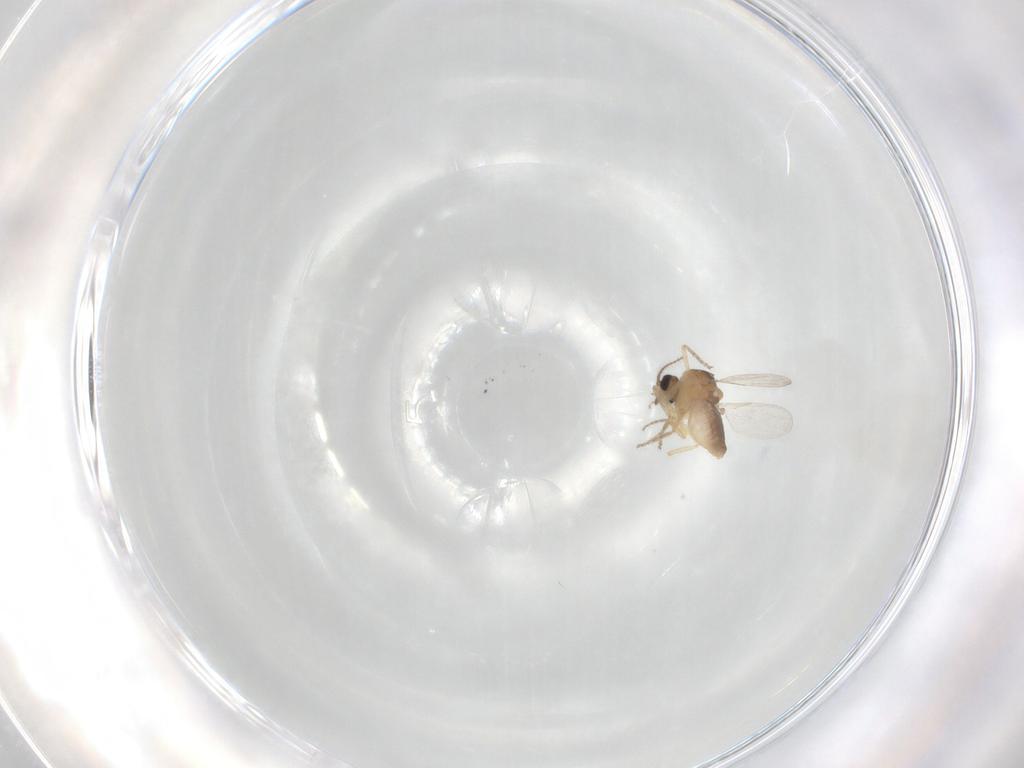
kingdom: Animalia
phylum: Arthropoda
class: Insecta
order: Diptera
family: Ceratopogonidae
